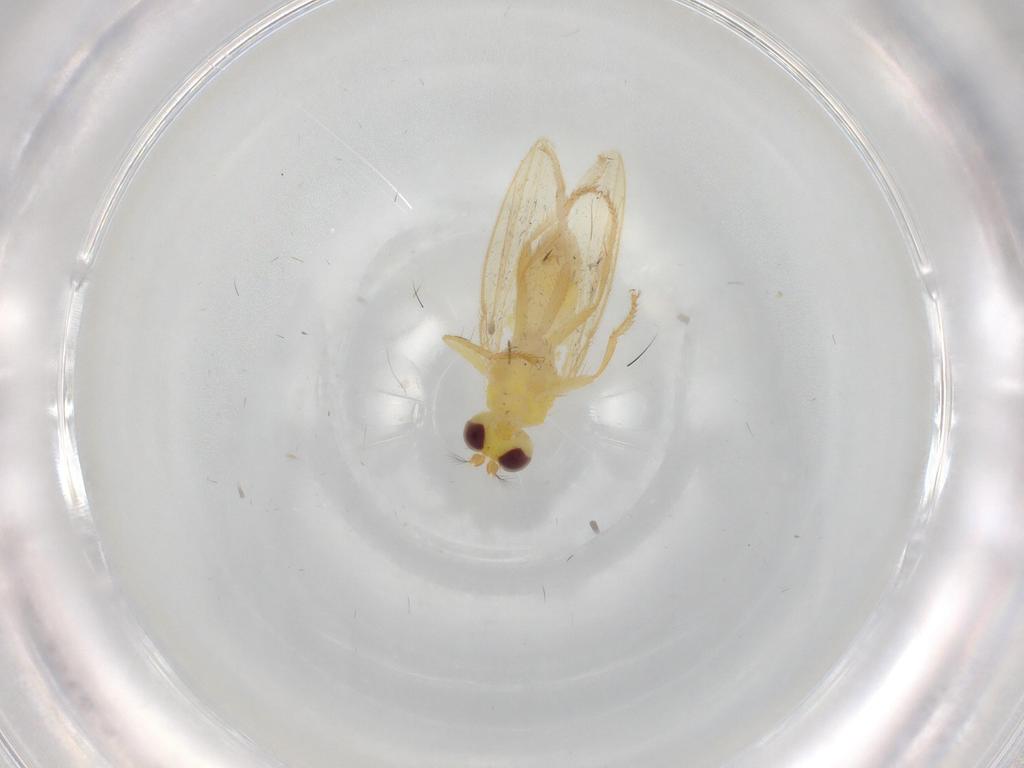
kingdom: Animalia
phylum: Arthropoda
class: Insecta
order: Diptera
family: Periscelididae
